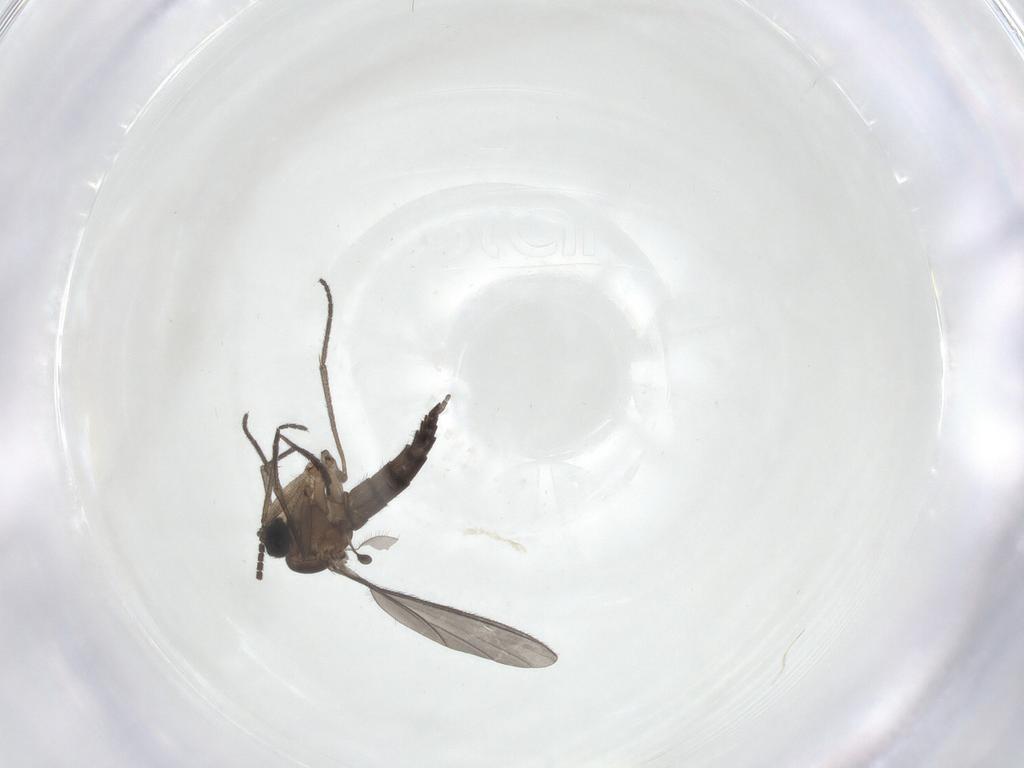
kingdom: Animalia
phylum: Arthropoda
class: Insecta
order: Diptera
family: Sciaridae
